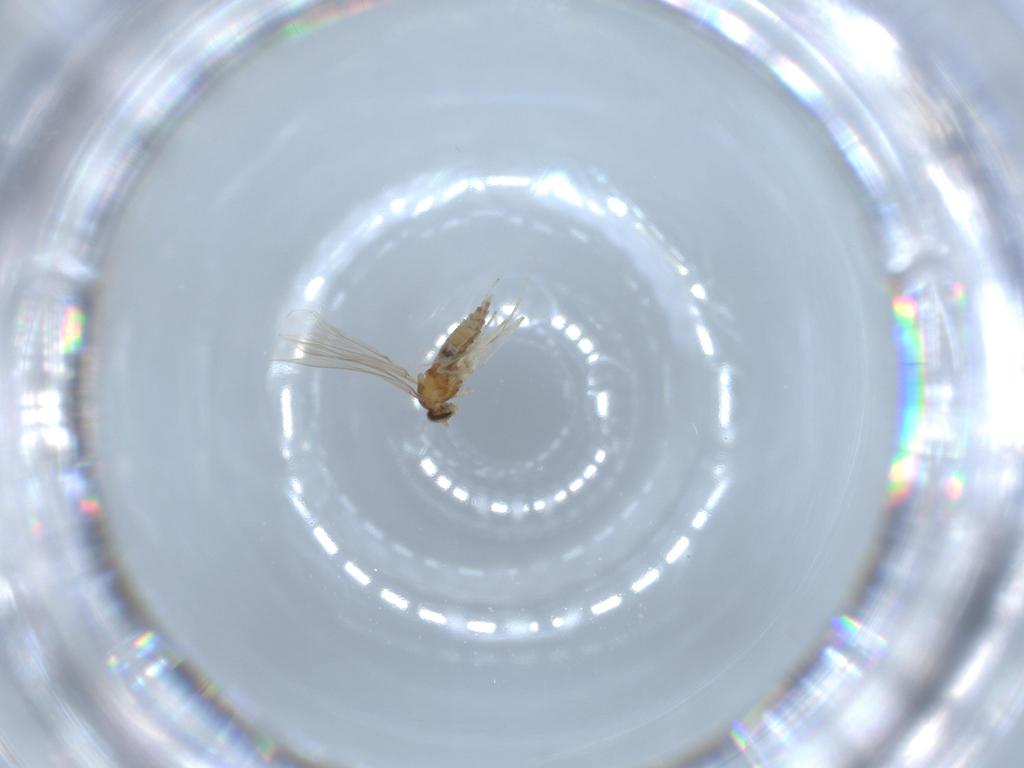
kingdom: Animalia
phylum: Arthropoda
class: Insecta
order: Diptera
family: Cecidomyiidae
